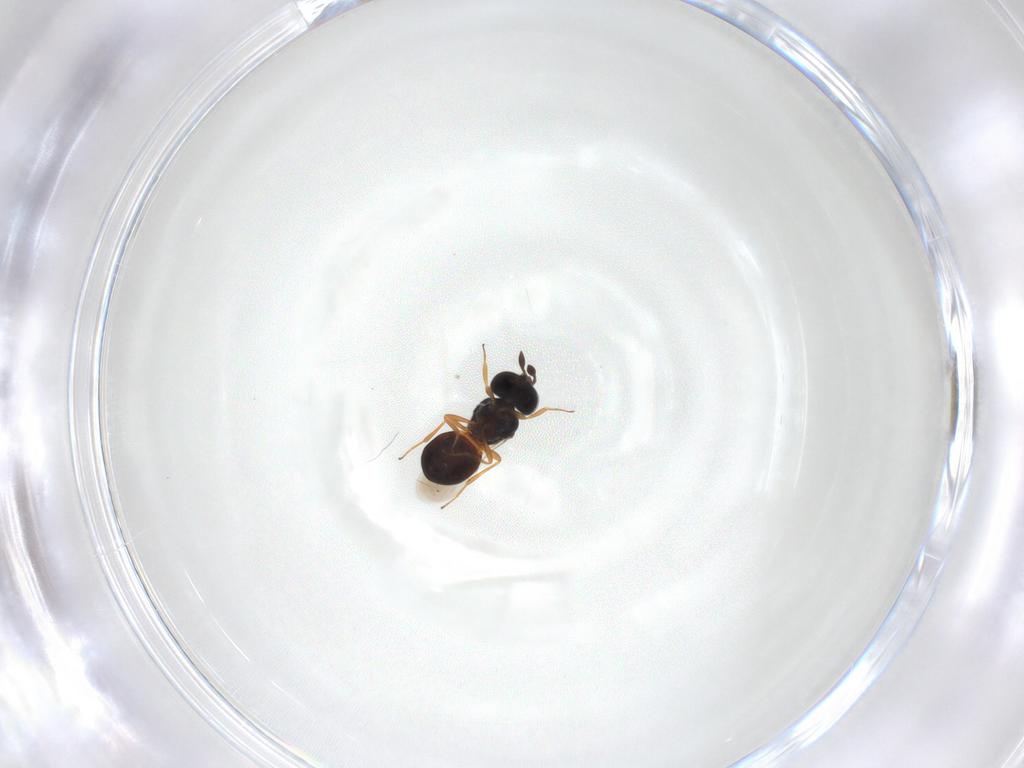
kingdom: Animalia
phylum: Arthropoda
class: Insecta
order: Hymenoptera
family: Scelionidae
